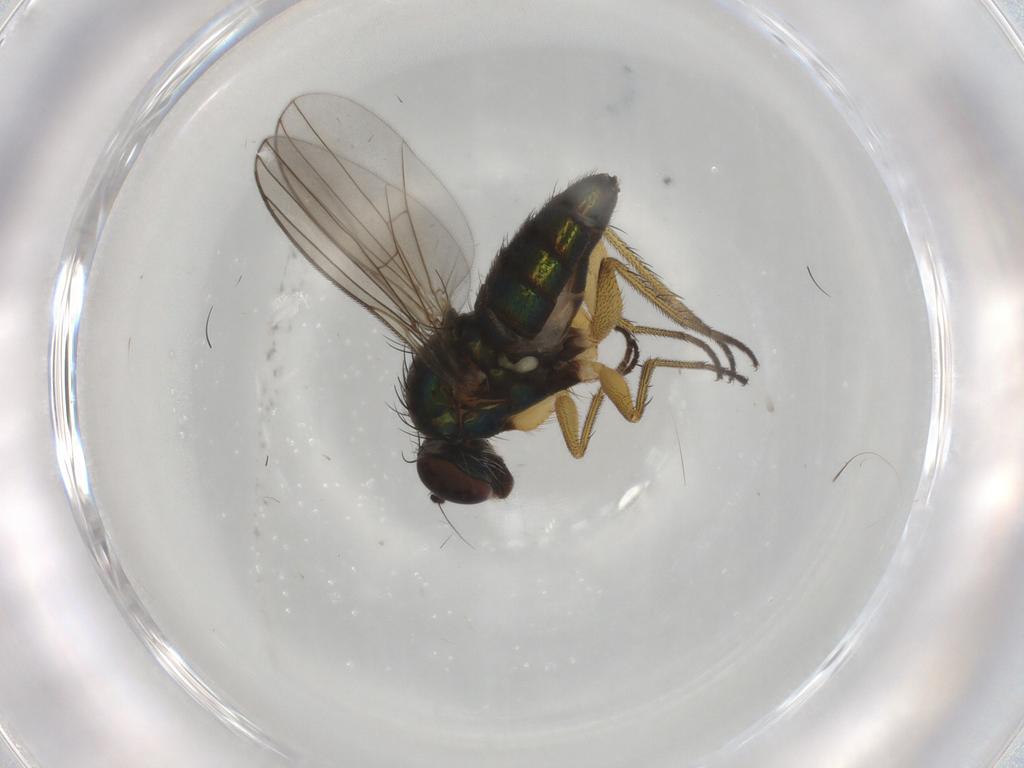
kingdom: Animalia
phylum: Arthropoda
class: Insecta
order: Diptera
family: Dolichopodidae
